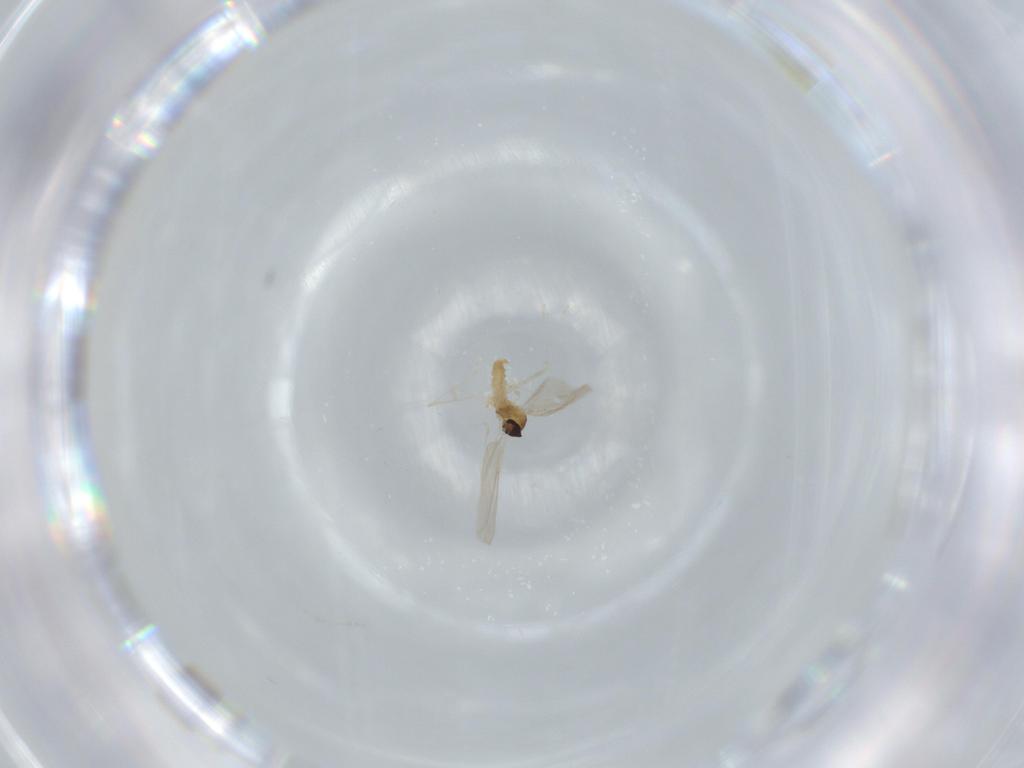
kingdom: Animalia
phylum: Arthropoda
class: Insecta
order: Diptera
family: Cecidomyiidae
